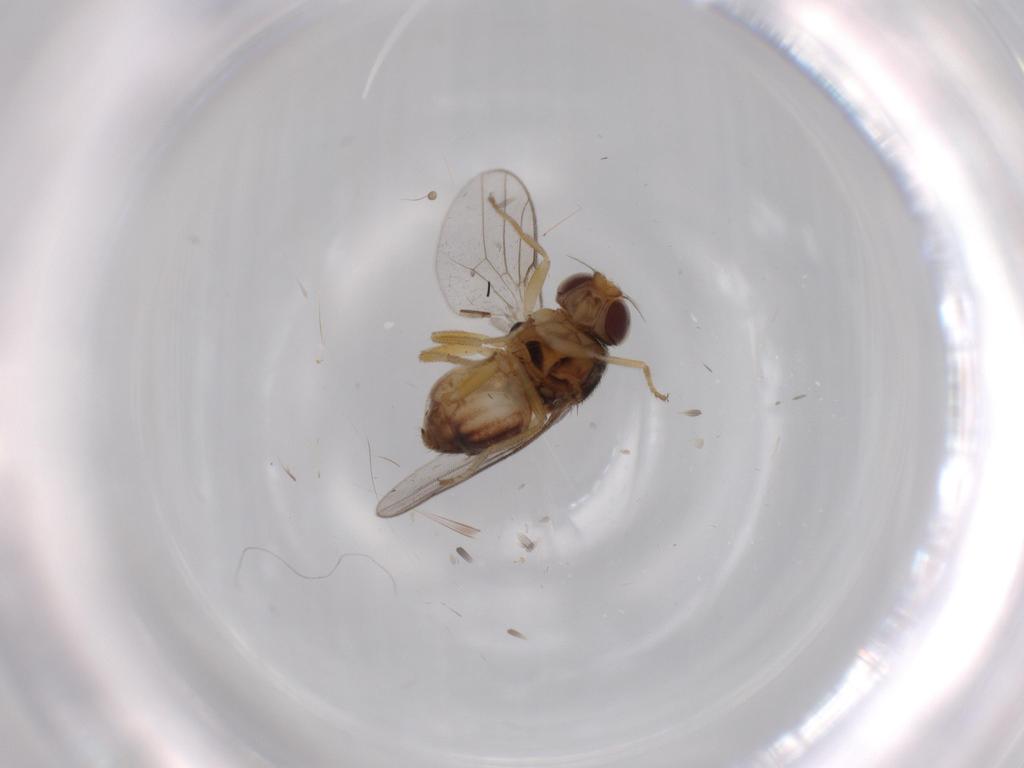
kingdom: Animalia
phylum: Arthropoda
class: Insecta
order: Diptera
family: Chloropidae
